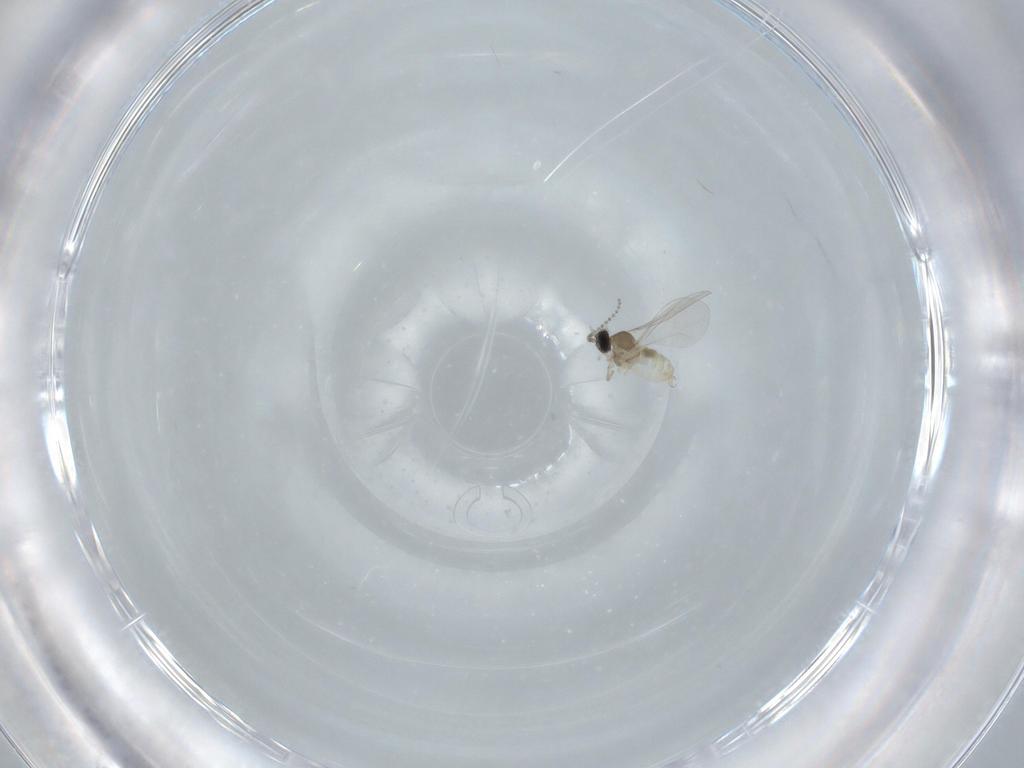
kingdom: Animalia
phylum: Arthropoda
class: Insecta
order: Diptera
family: Cecidomyiidae
